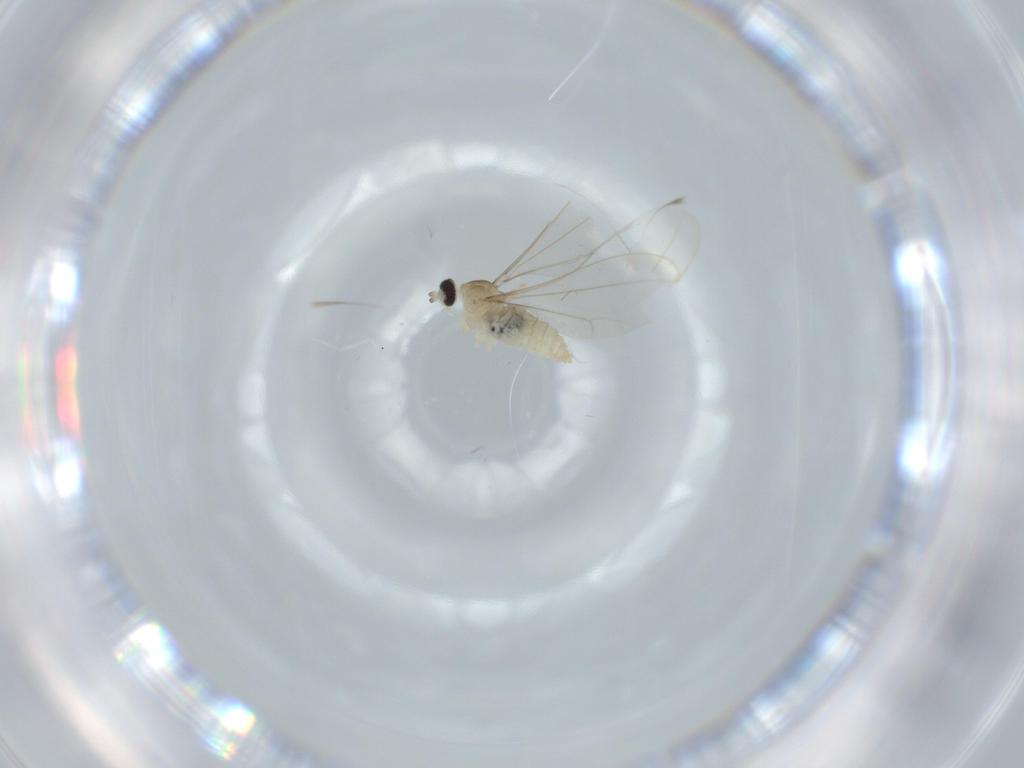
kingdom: Animalia
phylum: Arthropoda
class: Insecta
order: Diptera
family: Cecidomyiidae
